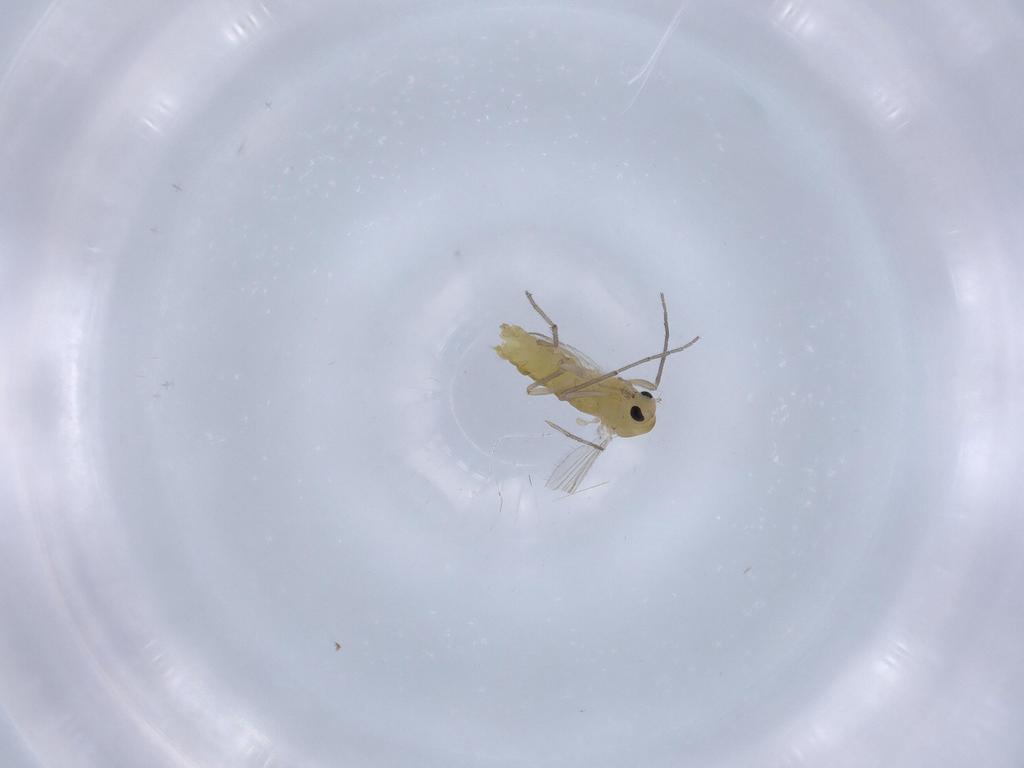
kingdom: Animalia
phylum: Arthropoda
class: Insecta
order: Diptera
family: Chironomidae
